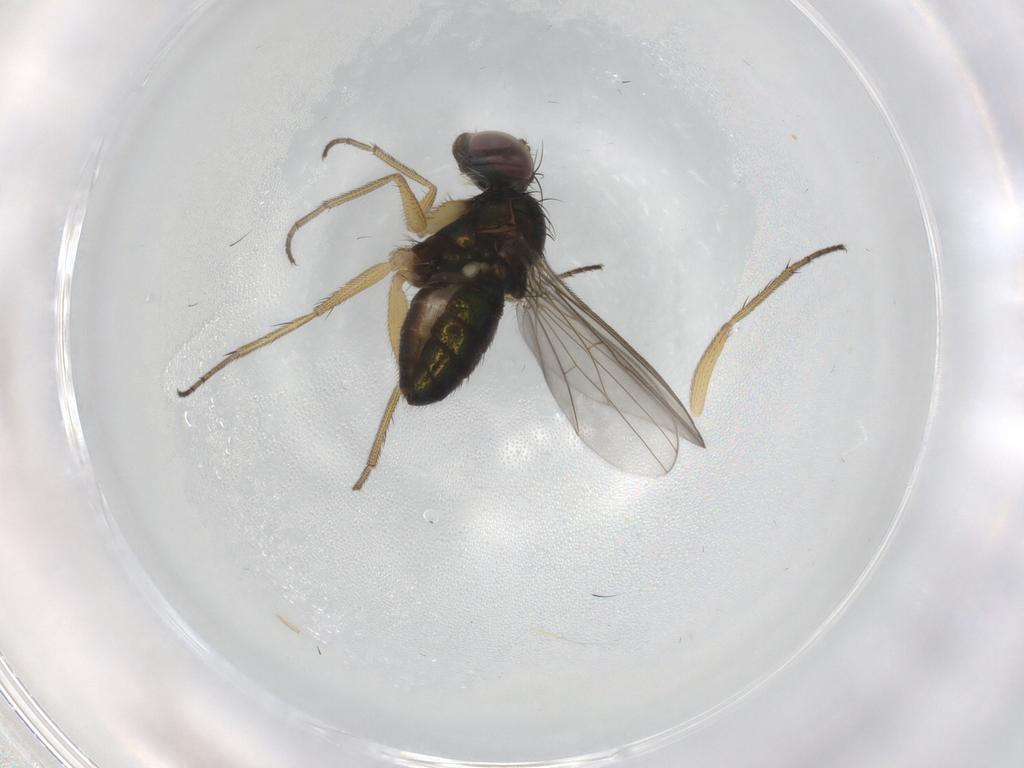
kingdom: Animalia
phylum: Arthropoda
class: Insecta
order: Diptera
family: Dolichopodidae
